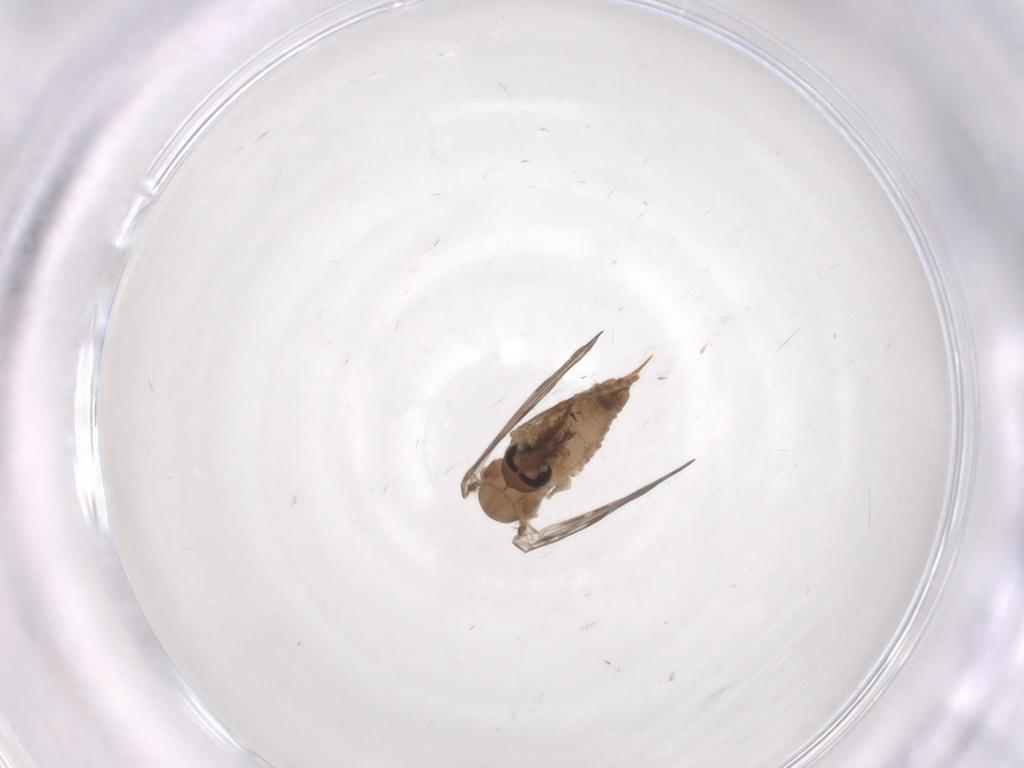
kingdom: Animalia
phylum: Arthropoda
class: Insecta
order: Diptera
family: Psychodidae
